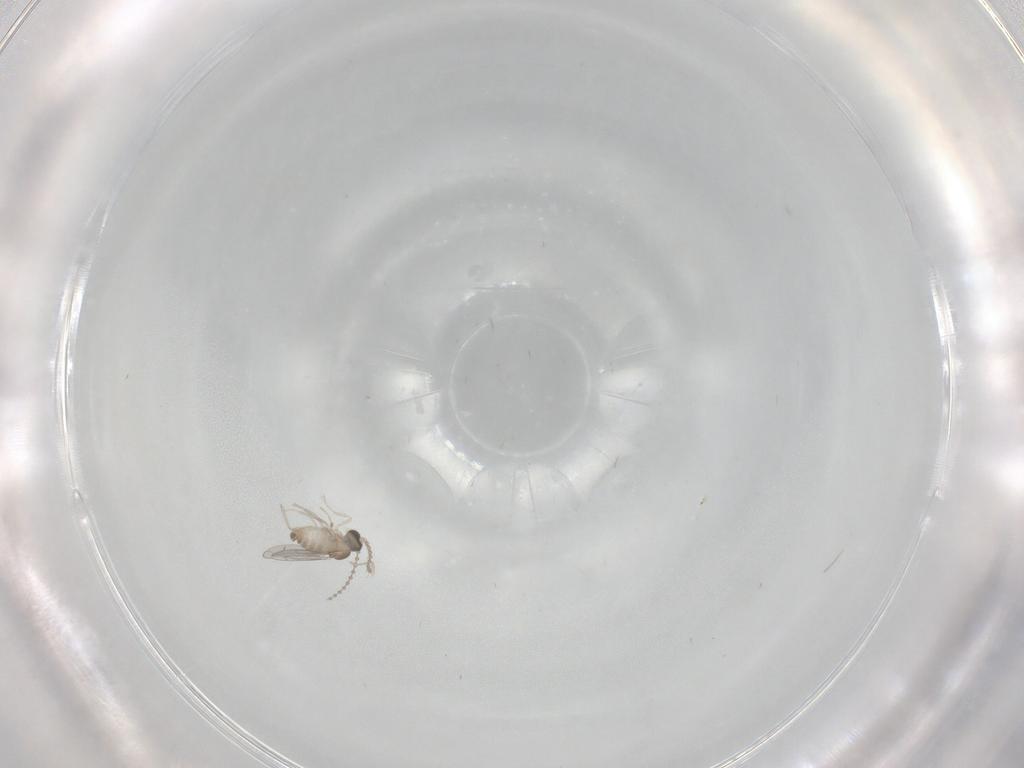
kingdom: Animalia
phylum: Arthropoda
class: Insecta
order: Diptera
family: Cecidomyiidae
